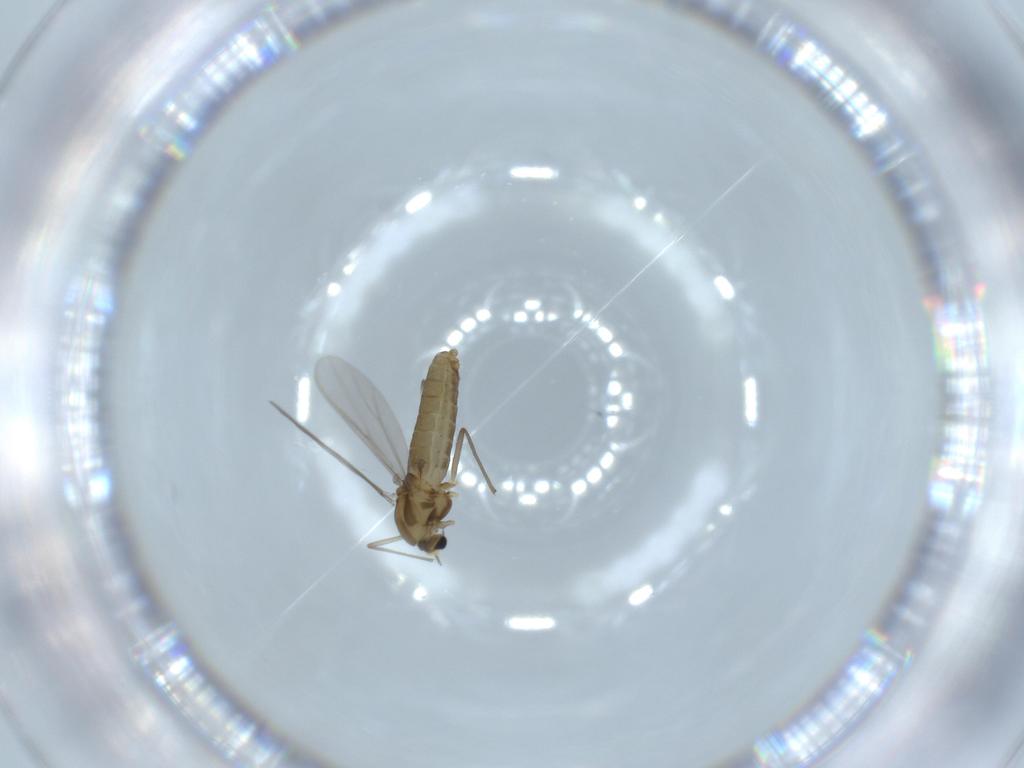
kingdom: Animalia
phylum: Arthropoda
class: Insecta
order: Diptera
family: Chironomidae
